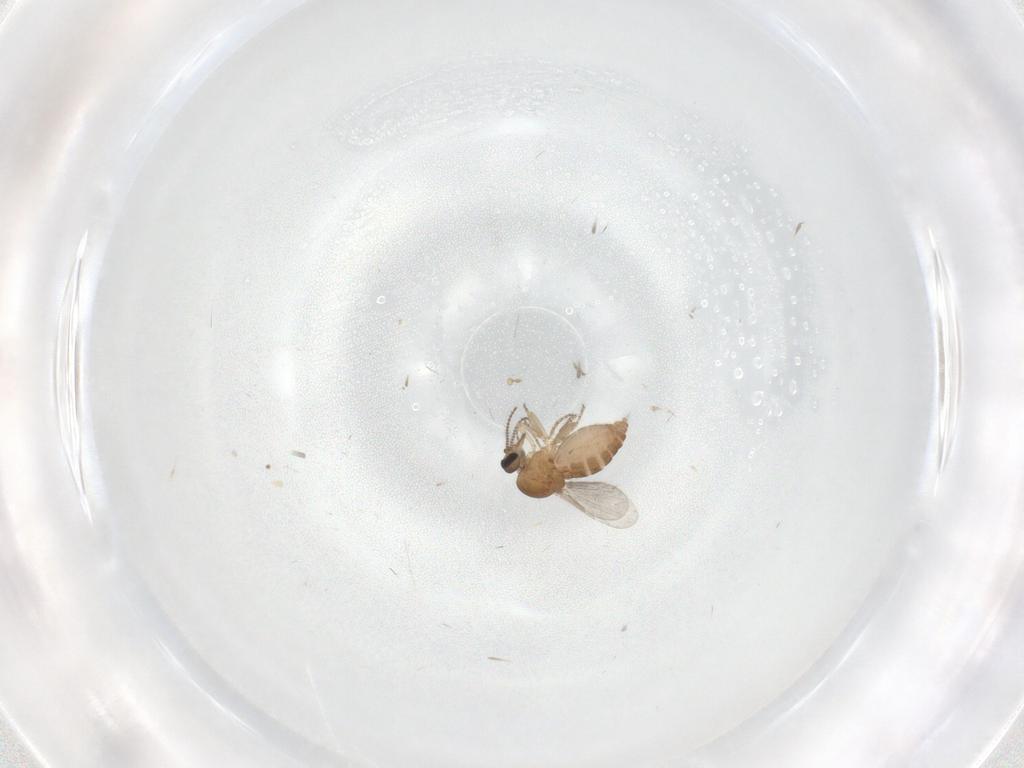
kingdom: Animalia
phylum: Arthropoda
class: Insecta
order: Diptera
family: Ceratopogonidae
